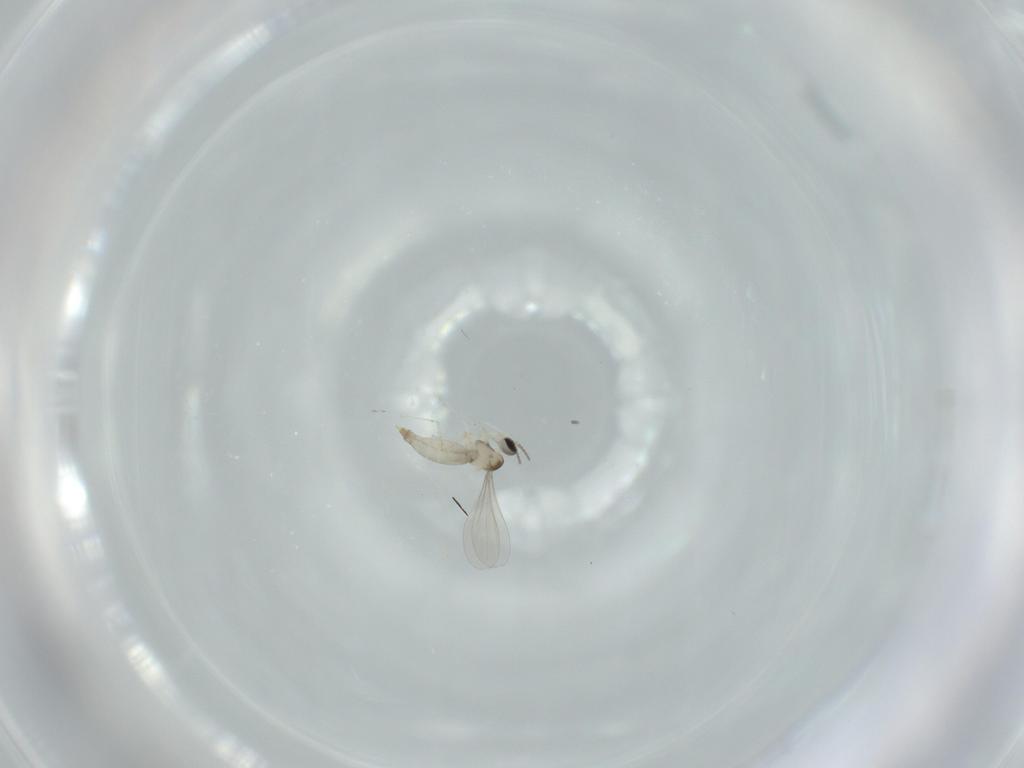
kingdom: Animalia
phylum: Arthropoda
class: Insecta
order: Diptera
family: Cecidomyiidae
